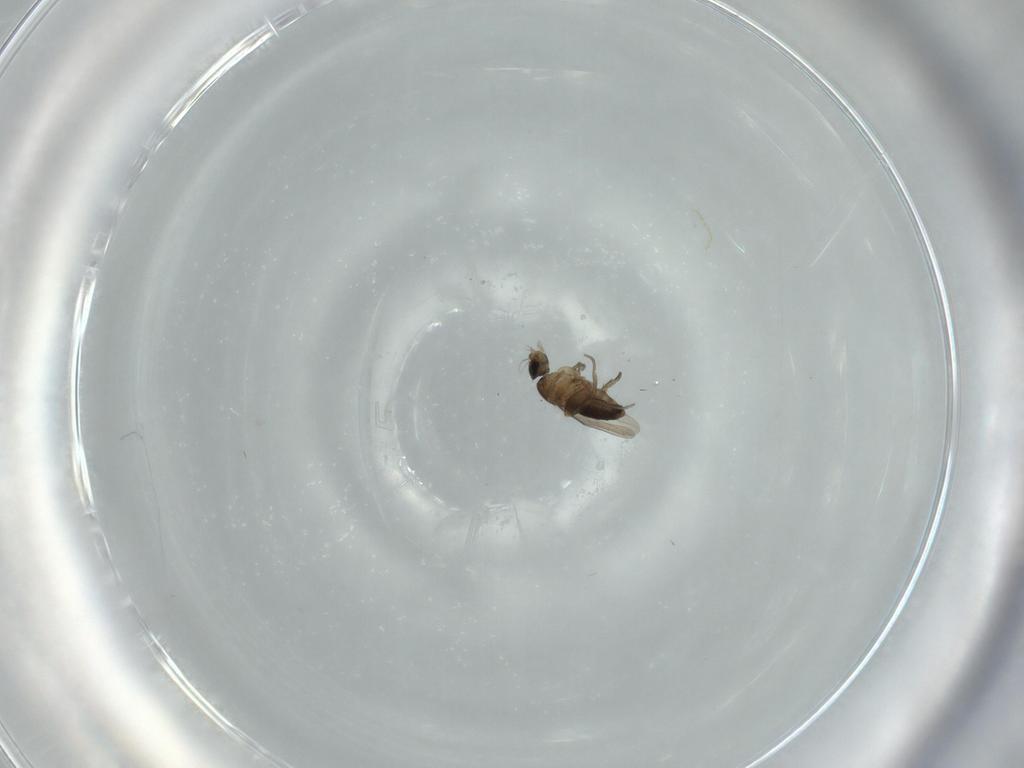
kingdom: Animalia
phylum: Arthropoda
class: Insecta
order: Diptera
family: Phoridae
